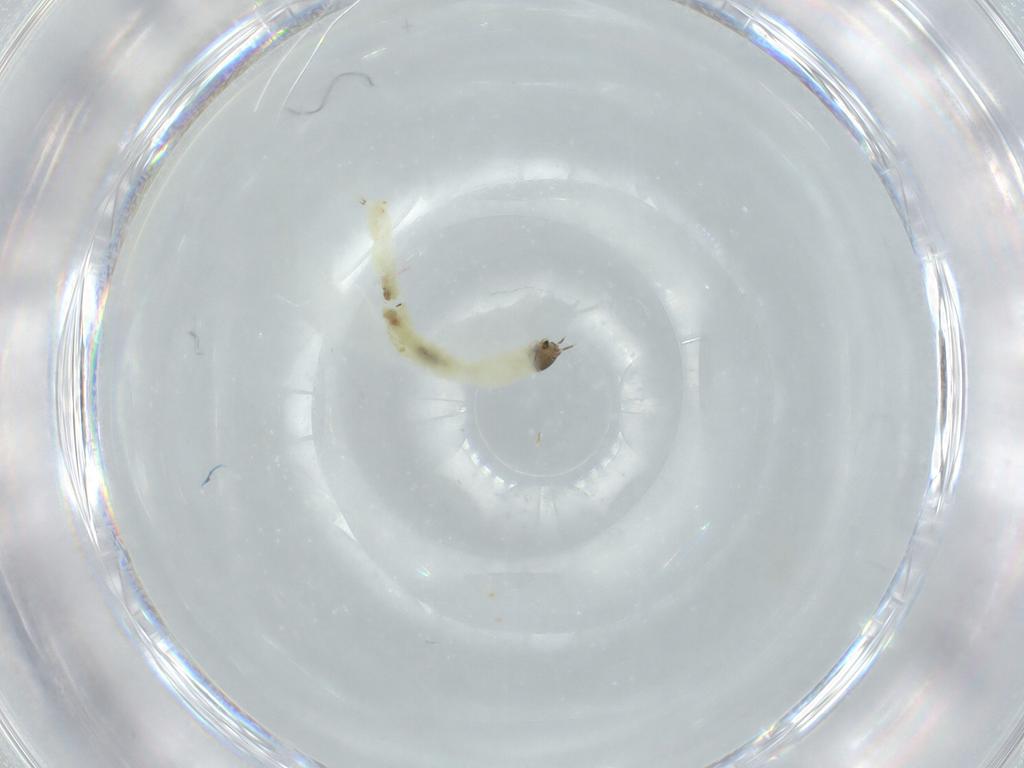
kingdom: Animalia
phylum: Arthropoda
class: Insecta
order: Diptera
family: Chironomidae
